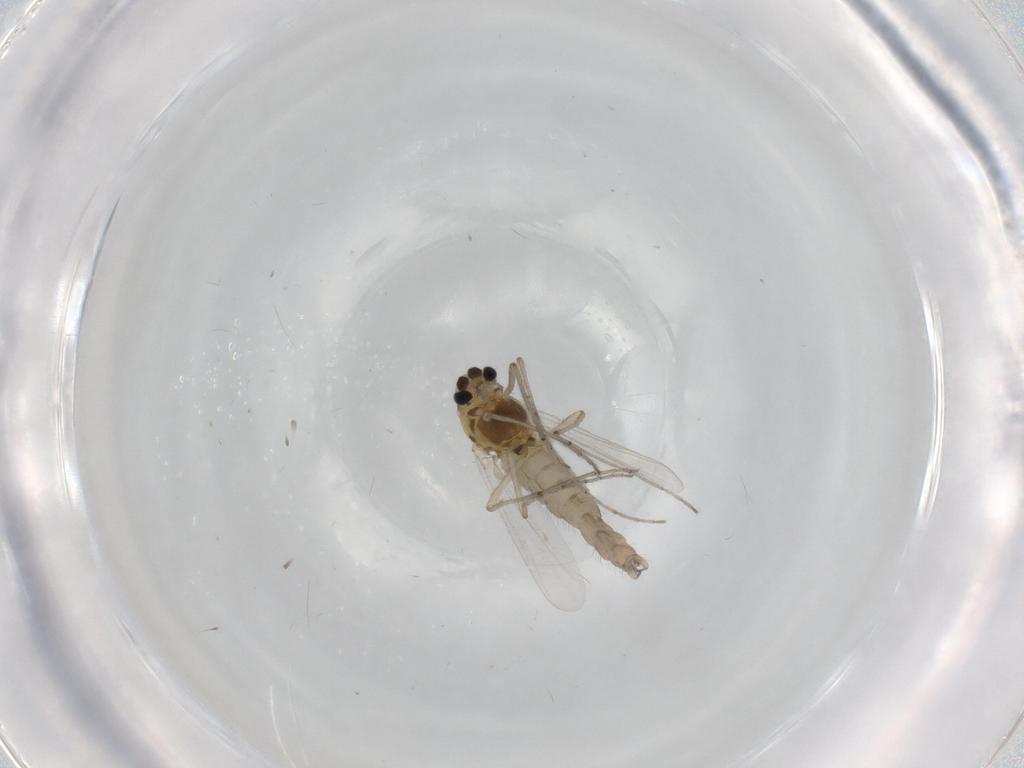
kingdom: Animalia
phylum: Arthropoda
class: Insecta
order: Diptera
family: Chironomidae
